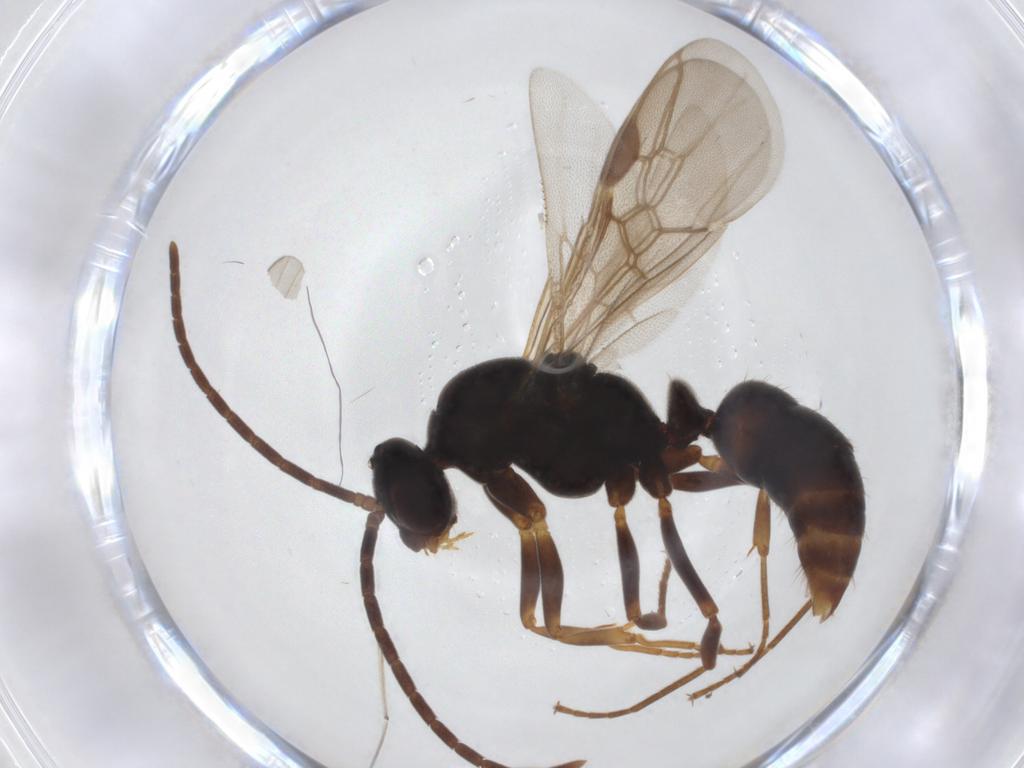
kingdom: Animalia
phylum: Arthropoda
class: Insecta
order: Hymenoptera
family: Formicidae
